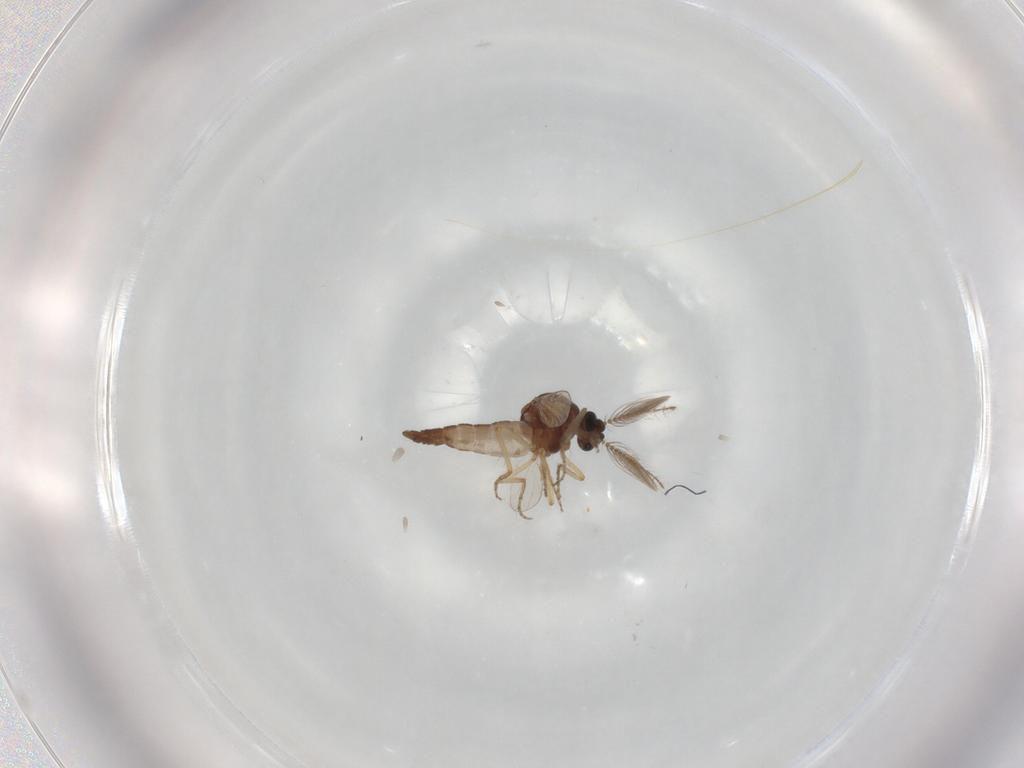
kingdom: Animalia
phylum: Arthropoda
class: Insecta
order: Diptera
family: Ceratopogonidae
